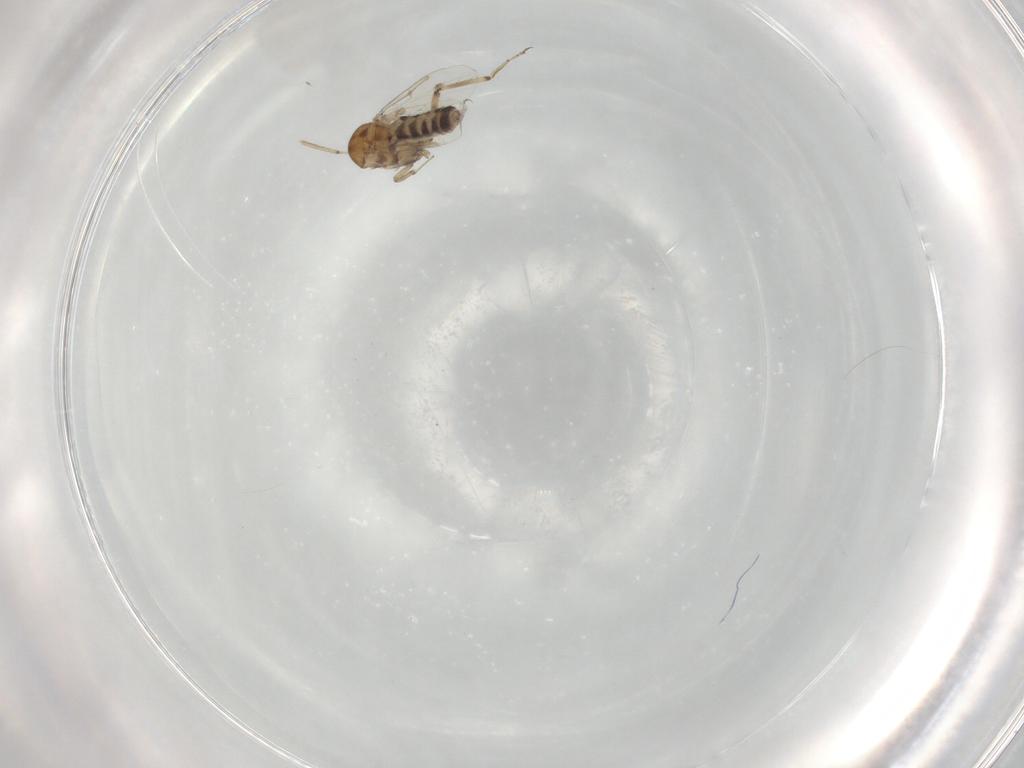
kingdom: Animalia
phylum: Arthropoda
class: Insecta
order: Diptera
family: Ceratopogonidae
